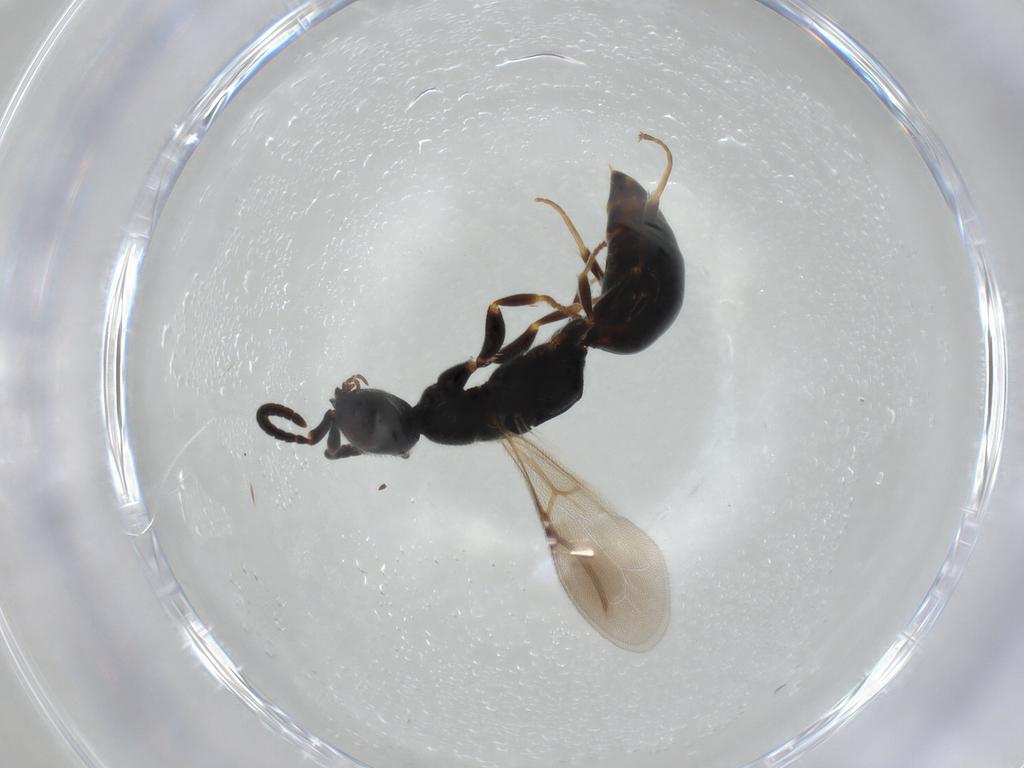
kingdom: Animalia
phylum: Arthropoda
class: Insecta
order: Hymenoptera
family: Bethylidae
